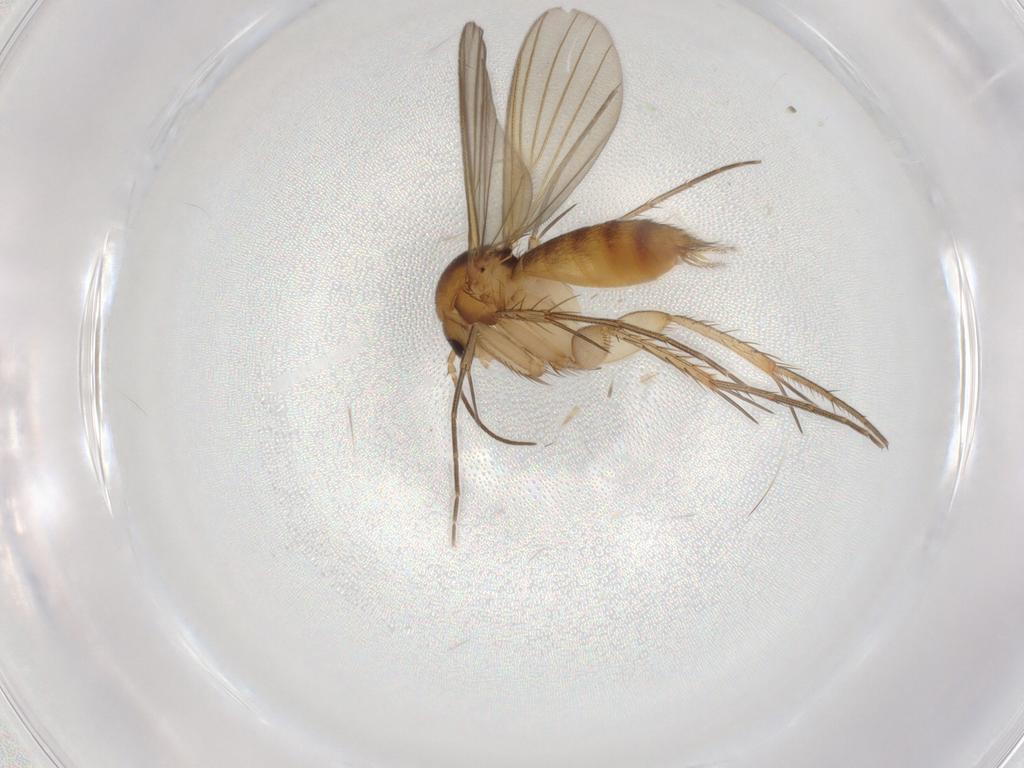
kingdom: Animalia
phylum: Arthropoda
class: Insecta
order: Diptera
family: Mycetophilidae
